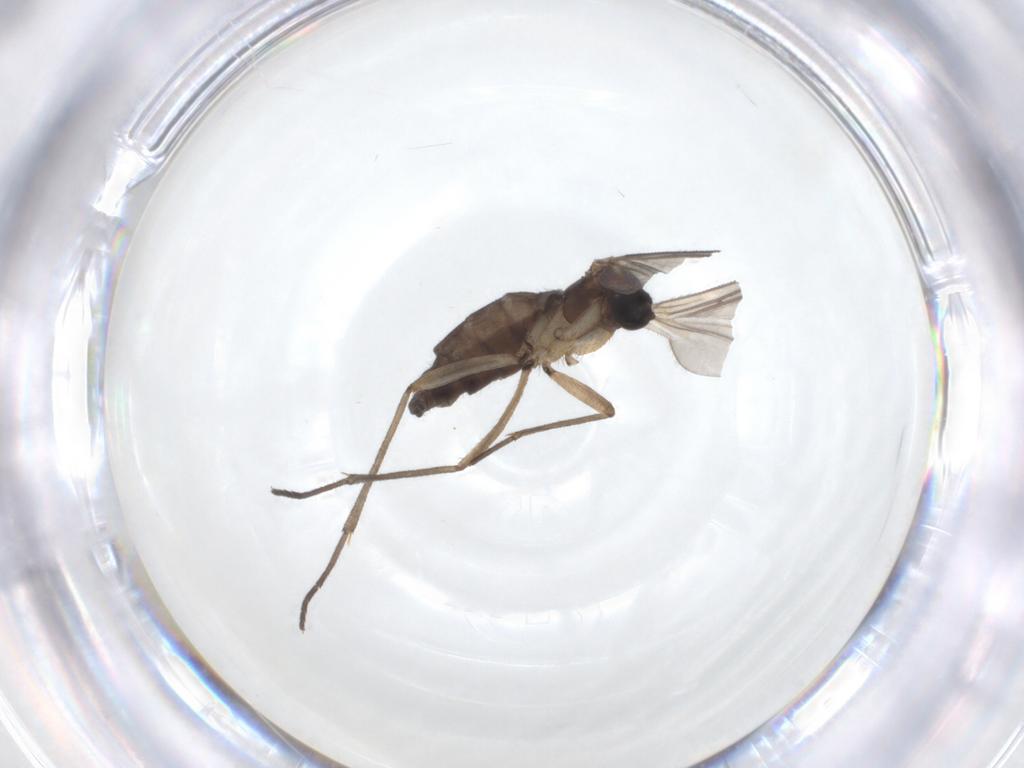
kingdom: Animalia
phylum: Arthropoda
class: Insecta
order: Diptera
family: Sciaridae
